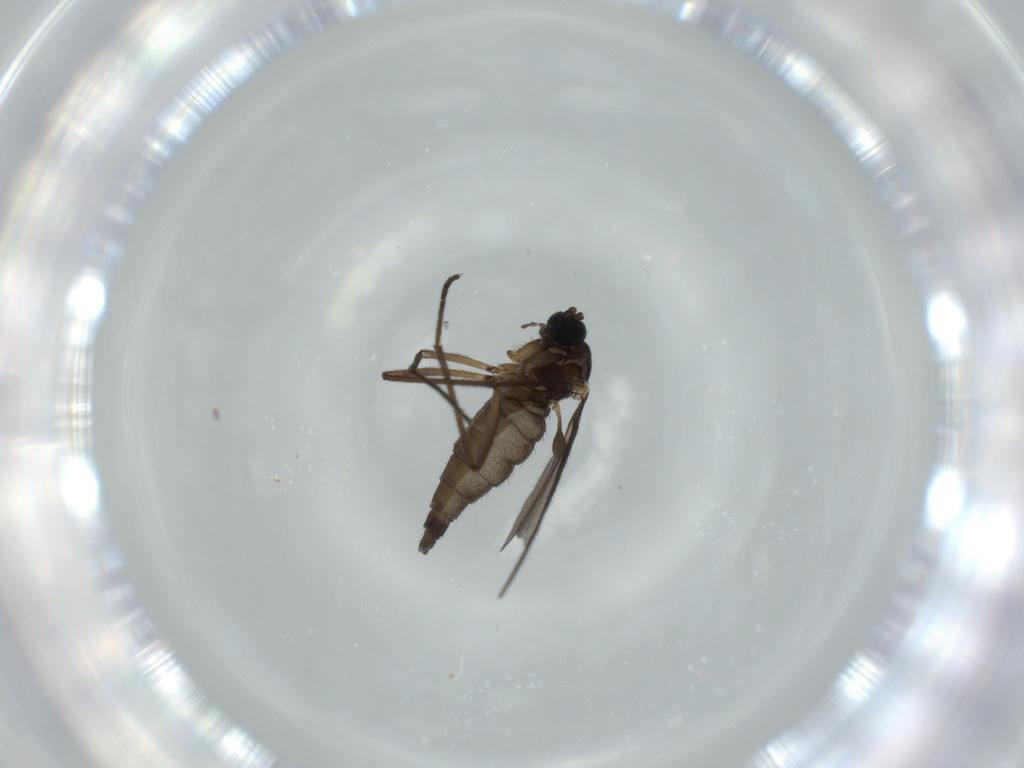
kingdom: Animalia
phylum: Arthropoda
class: Insecta
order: Diptera
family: Sciaridae
